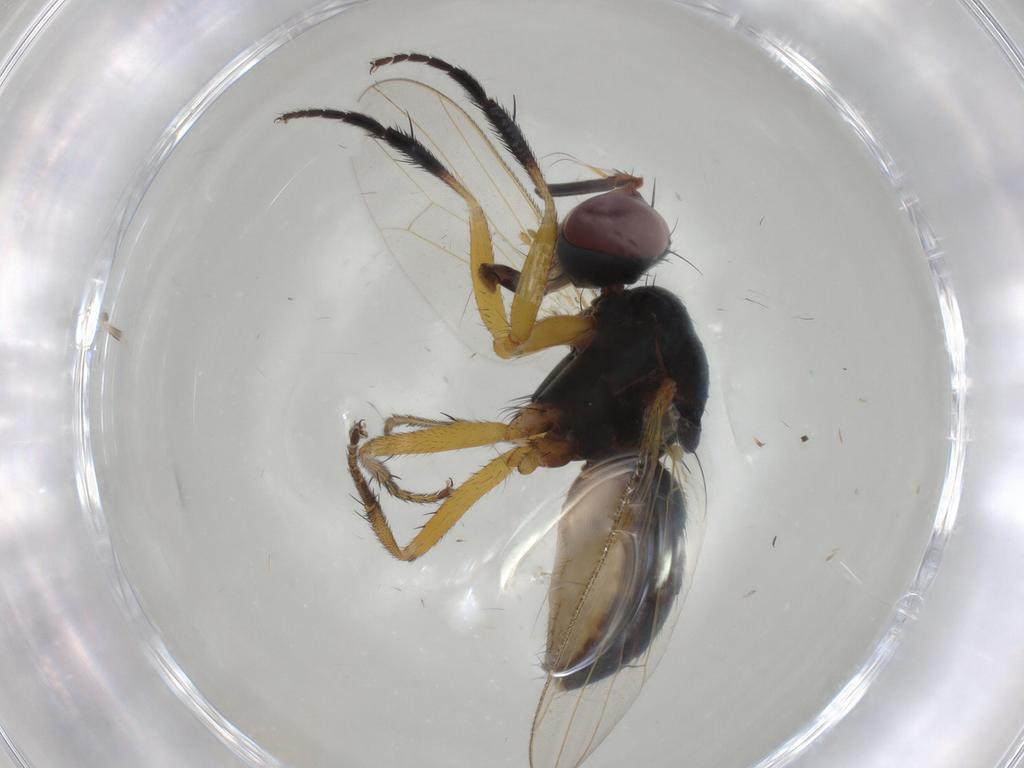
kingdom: Animalia
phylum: Arthropoda
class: Insecta
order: Diptera
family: Muscidae
